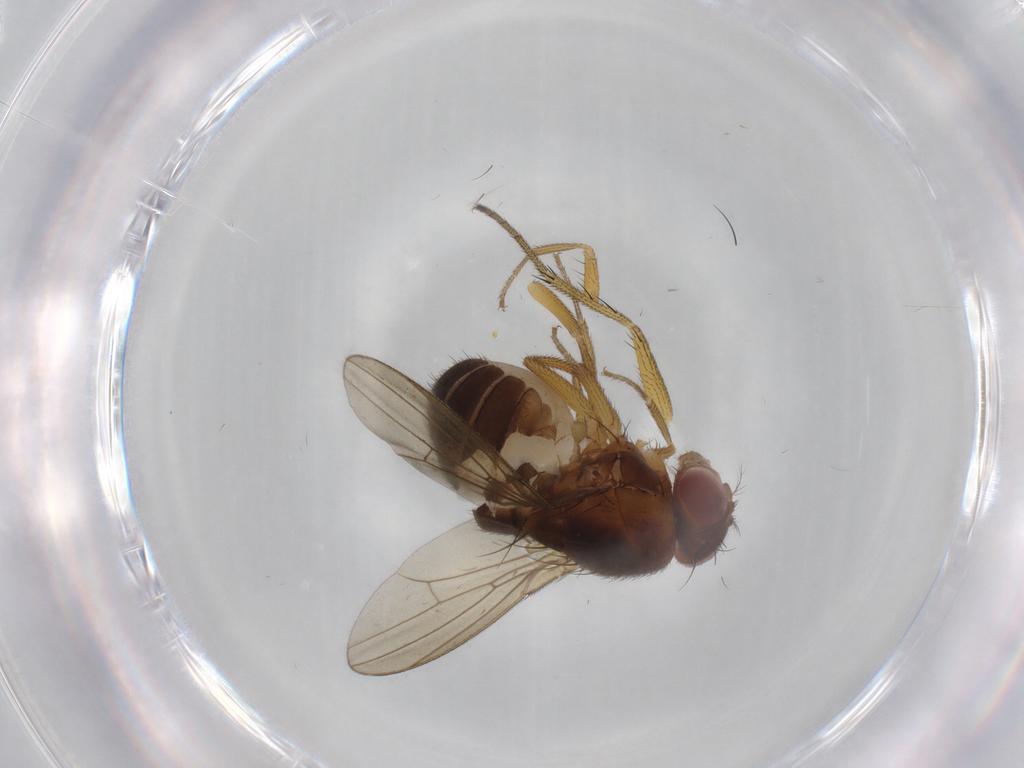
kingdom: Animalia
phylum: Arthropoda
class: Insecta
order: Diptera
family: Drosophilidae
